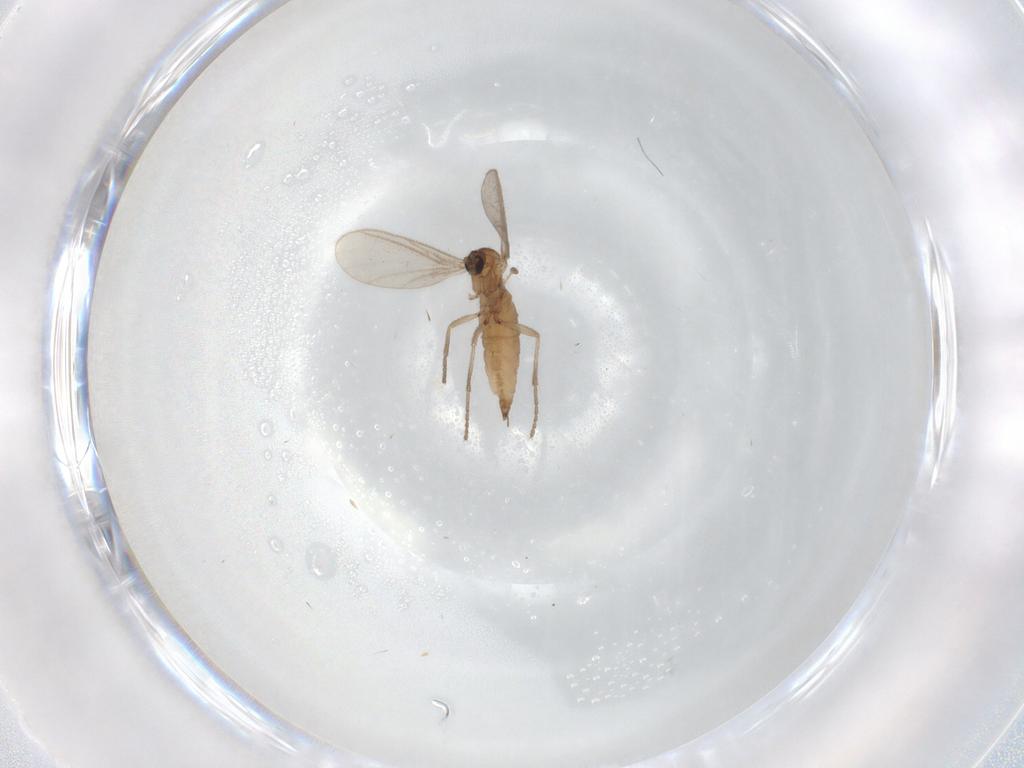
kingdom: Animalia
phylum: Arthropoda
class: Insecta
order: Diptera
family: Sciaridae
